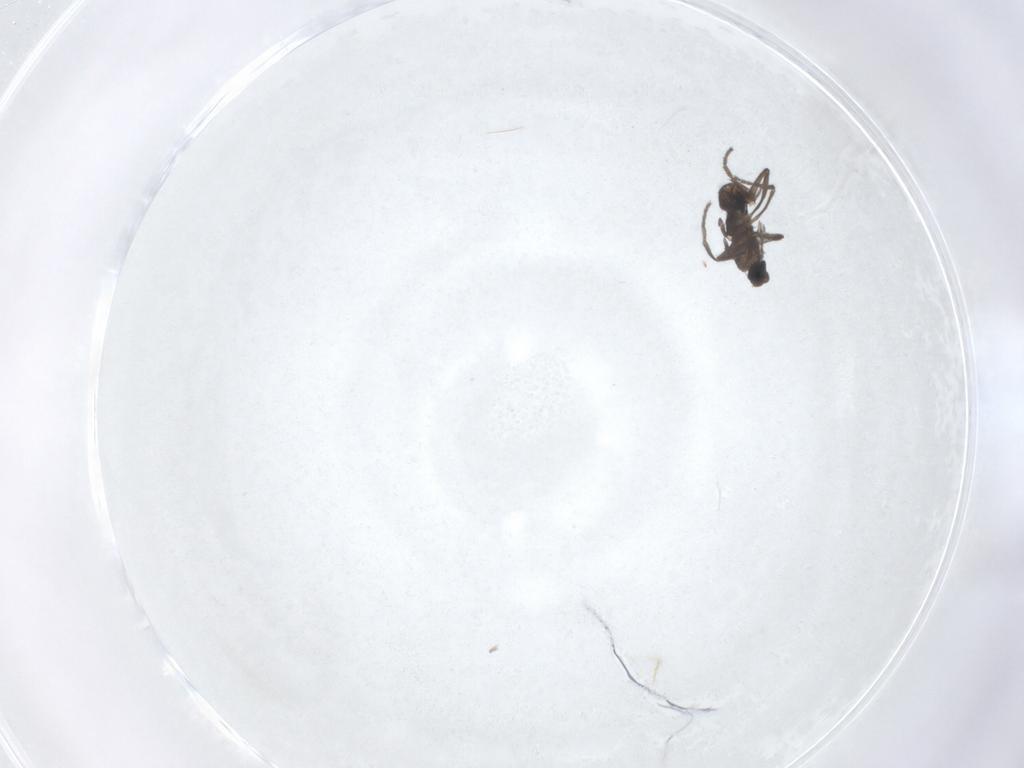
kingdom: Animalia
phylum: Arthropoda
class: Insecta
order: Diptera
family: Phoridae
